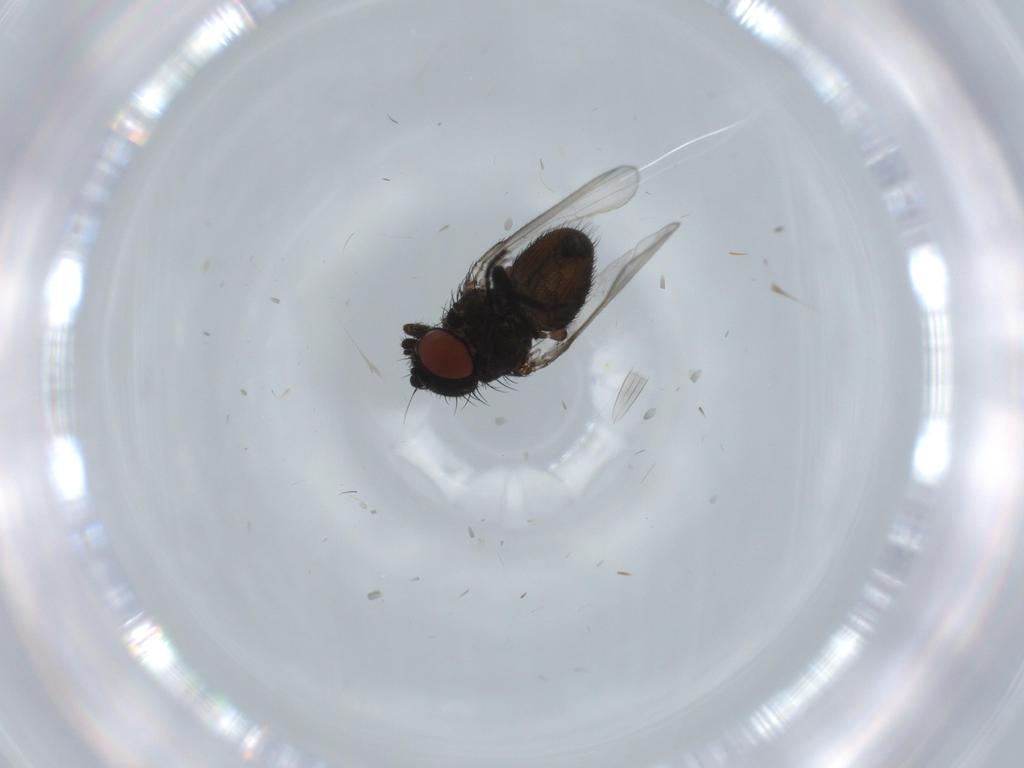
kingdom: Animalia
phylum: Arthropoda
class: Insecta
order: Diptera
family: Milichiidae
